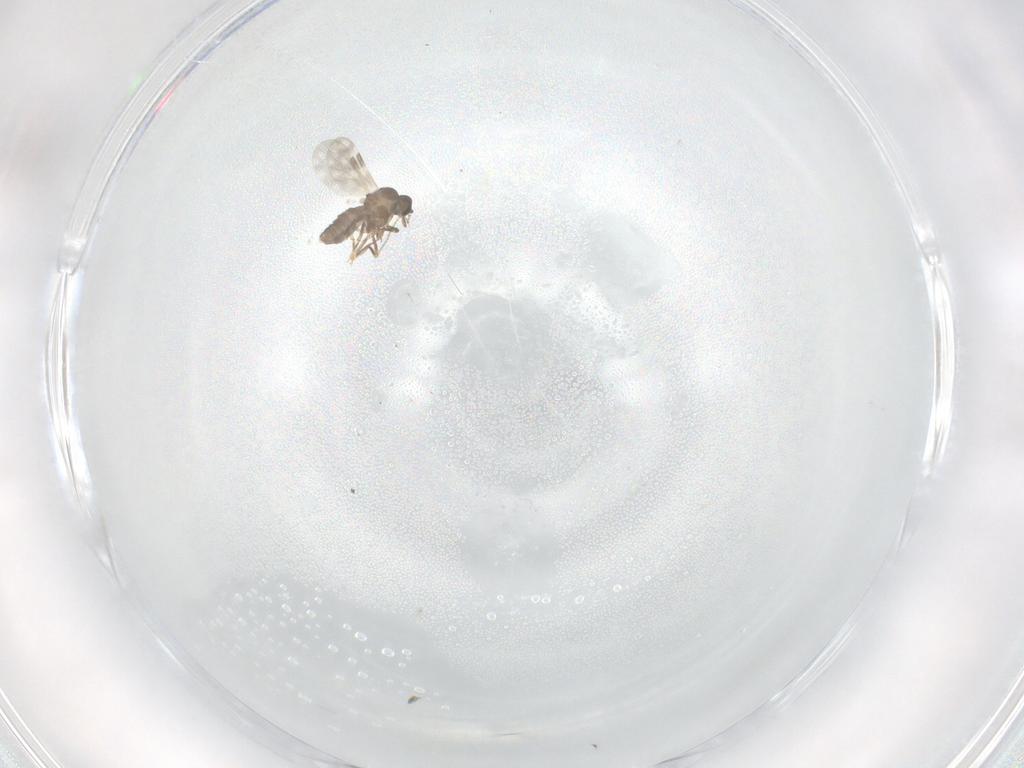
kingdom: Animalia
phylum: Arthropoda
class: Insecta
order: Diptera
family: Ceratopogonidae
